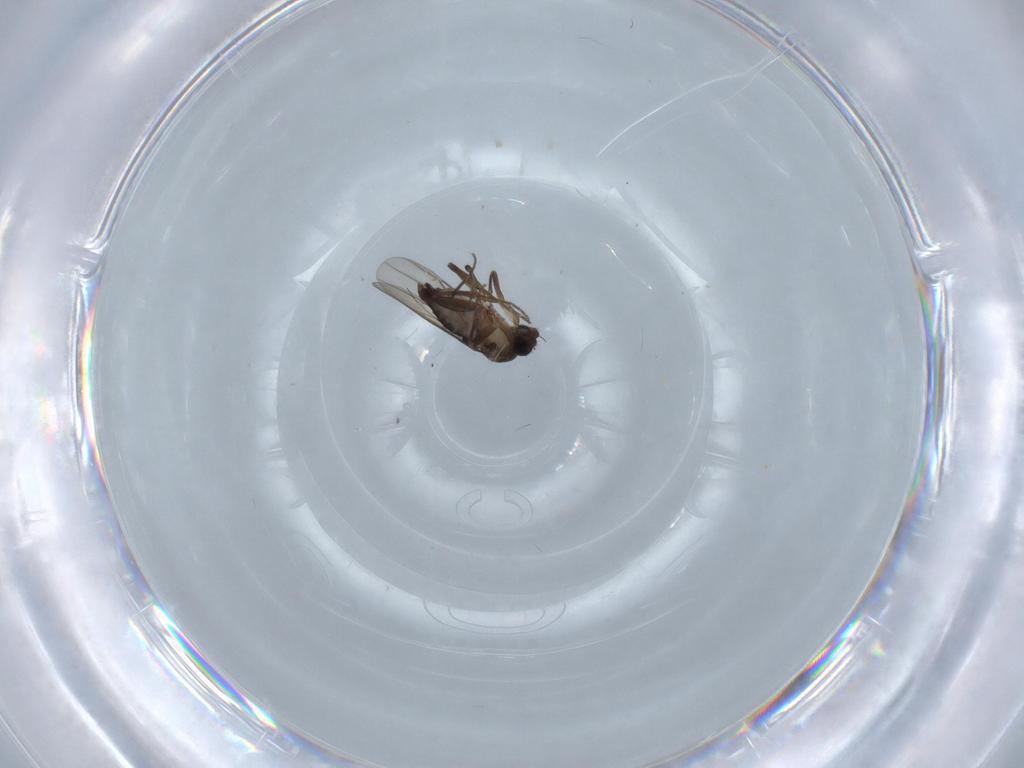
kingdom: Animalia
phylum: Arthropoda
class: Insecta
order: Diptera
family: Phoridae
